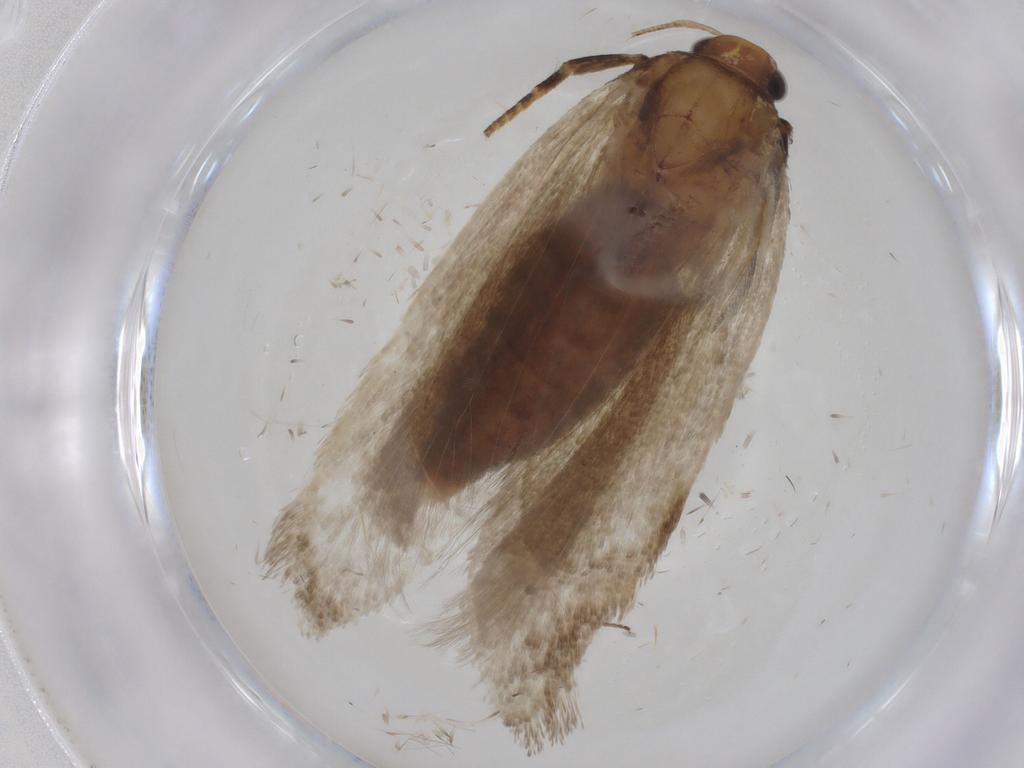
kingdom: Animalia
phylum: Arthropoda
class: Insecta
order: Lepidoptera
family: Gelechiidae
